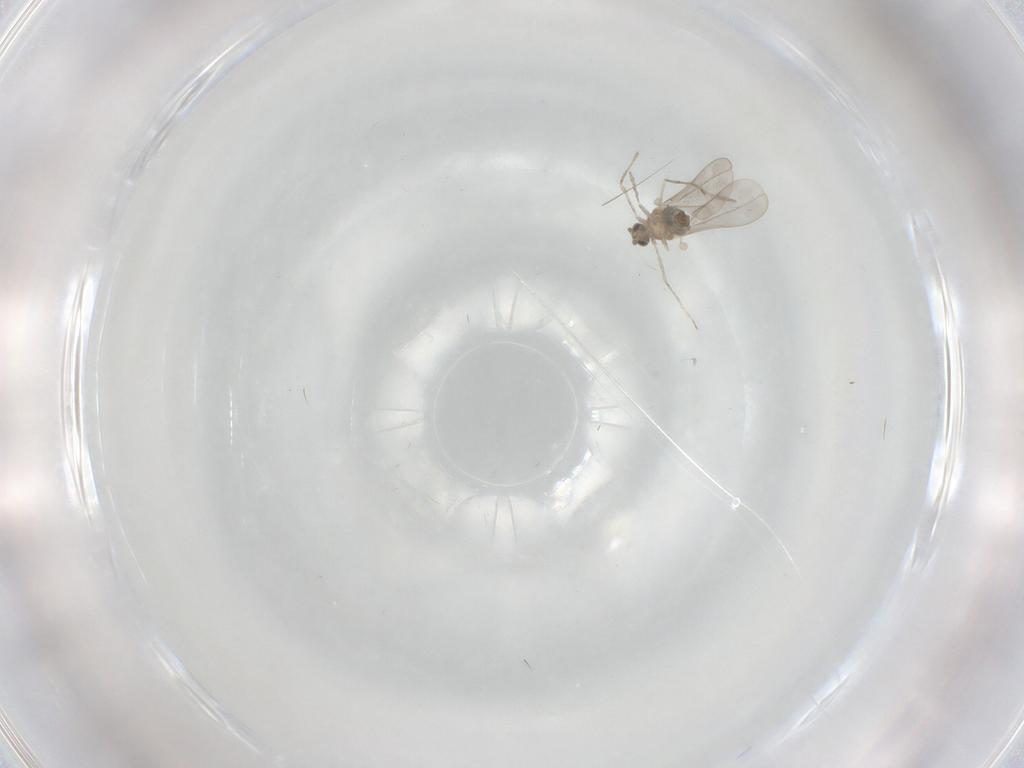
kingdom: Animalia
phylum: Arthropoda
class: Insecta
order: Diptera
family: Cecidomyiidae
